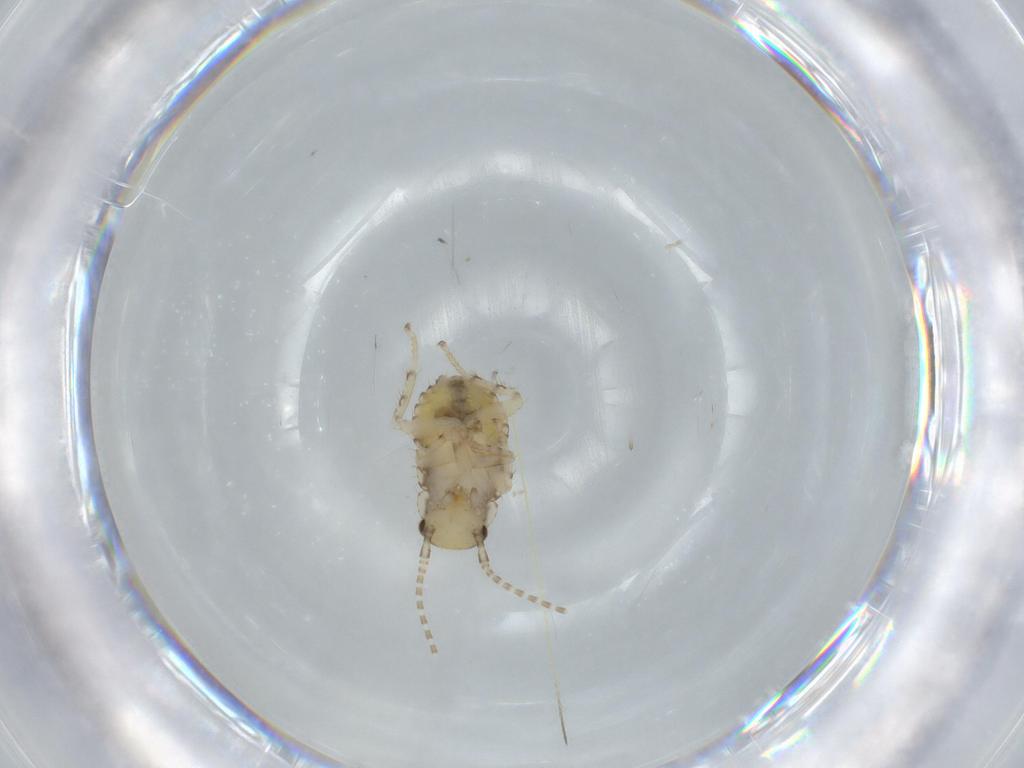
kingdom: Animalia
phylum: Arthropoda
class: Insecta
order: Blattodea
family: Ectobiidae
